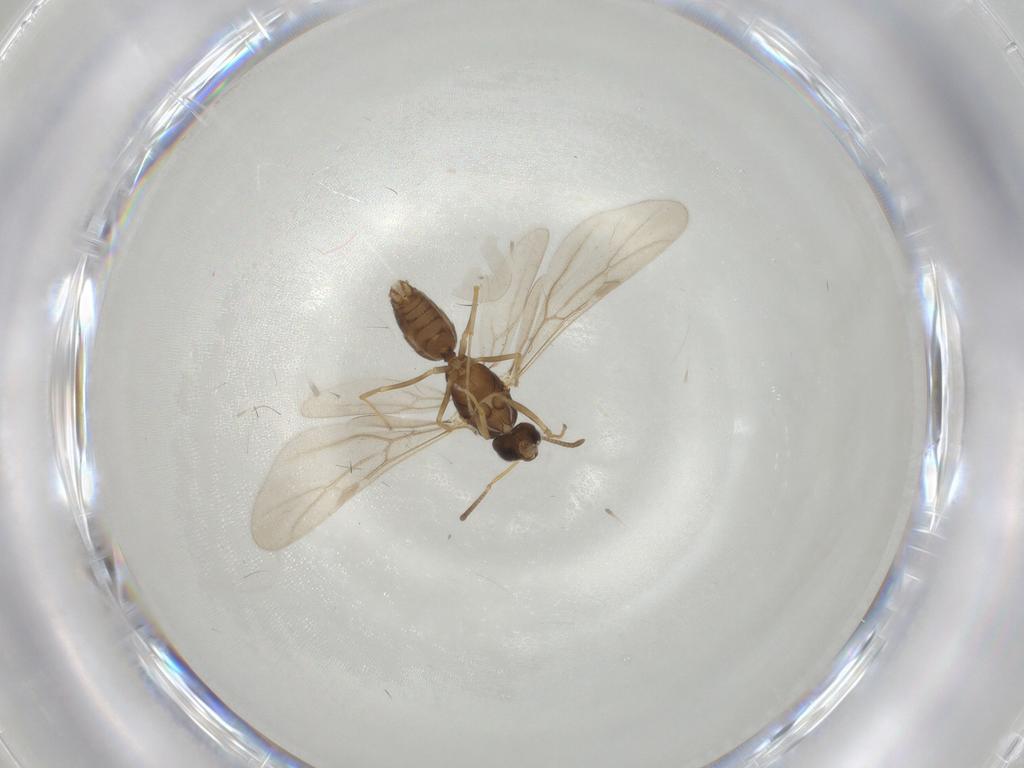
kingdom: Animalia
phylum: Arthropoda
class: Insecta
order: Hymenoptera
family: Formicidae
